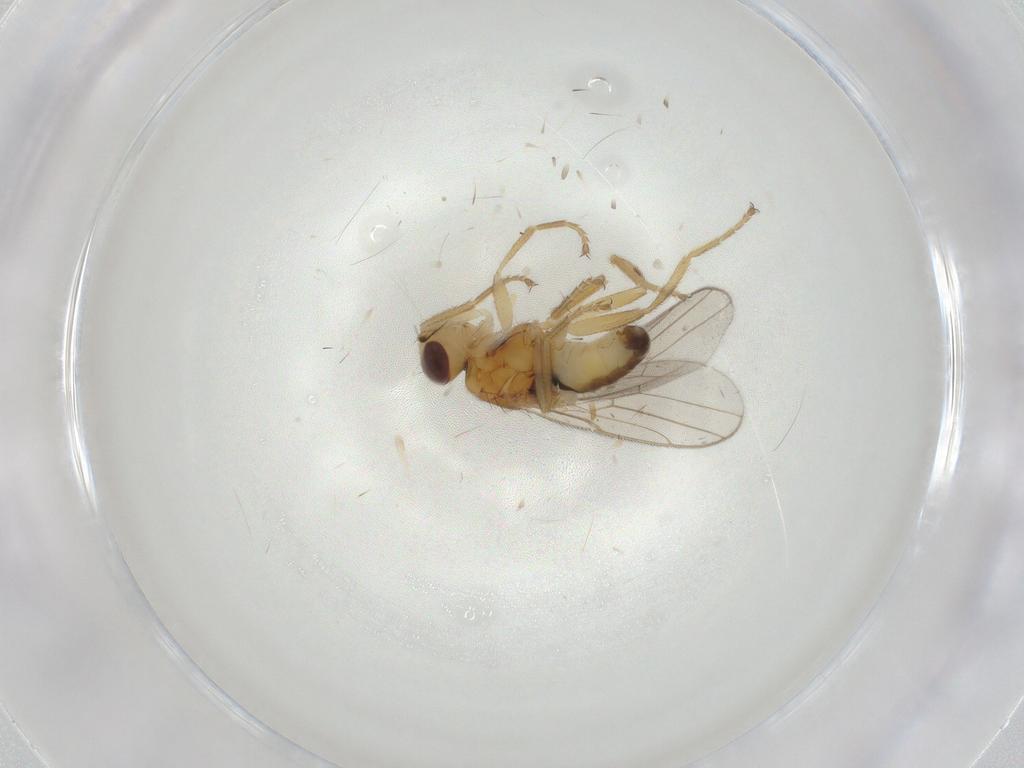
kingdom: Animalia
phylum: Arthropoda
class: Insecta
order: Diptera
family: Chloropidae
